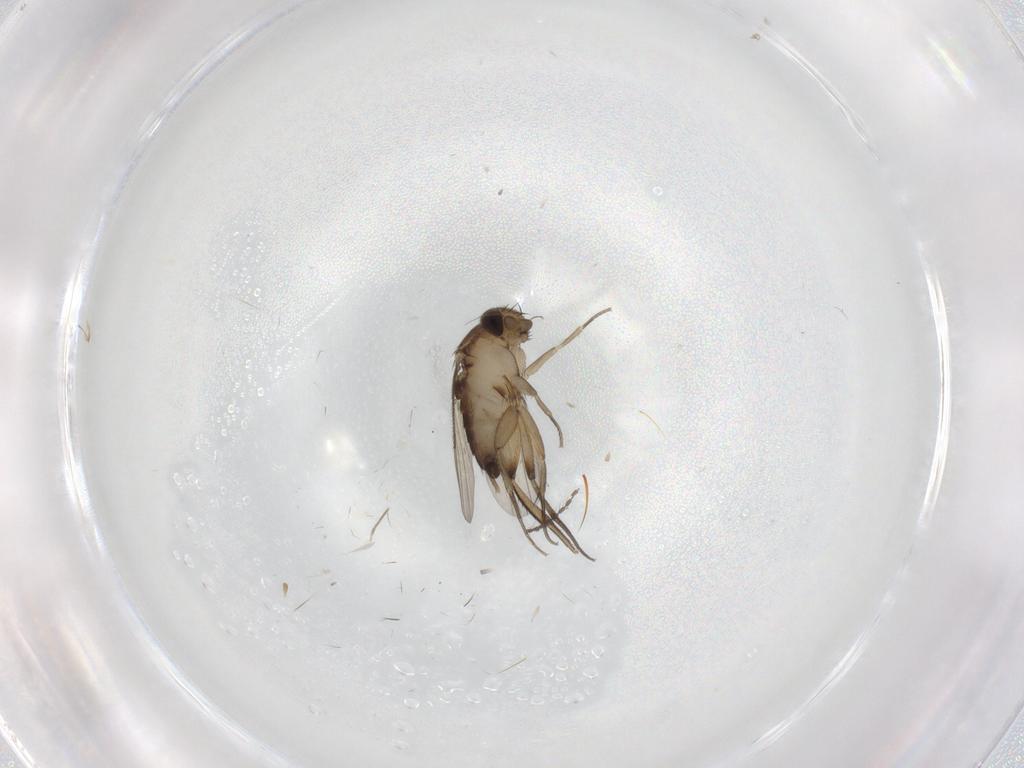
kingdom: Animalia
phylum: Arthropoda
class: Insecta
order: Diptera
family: Phoridae
